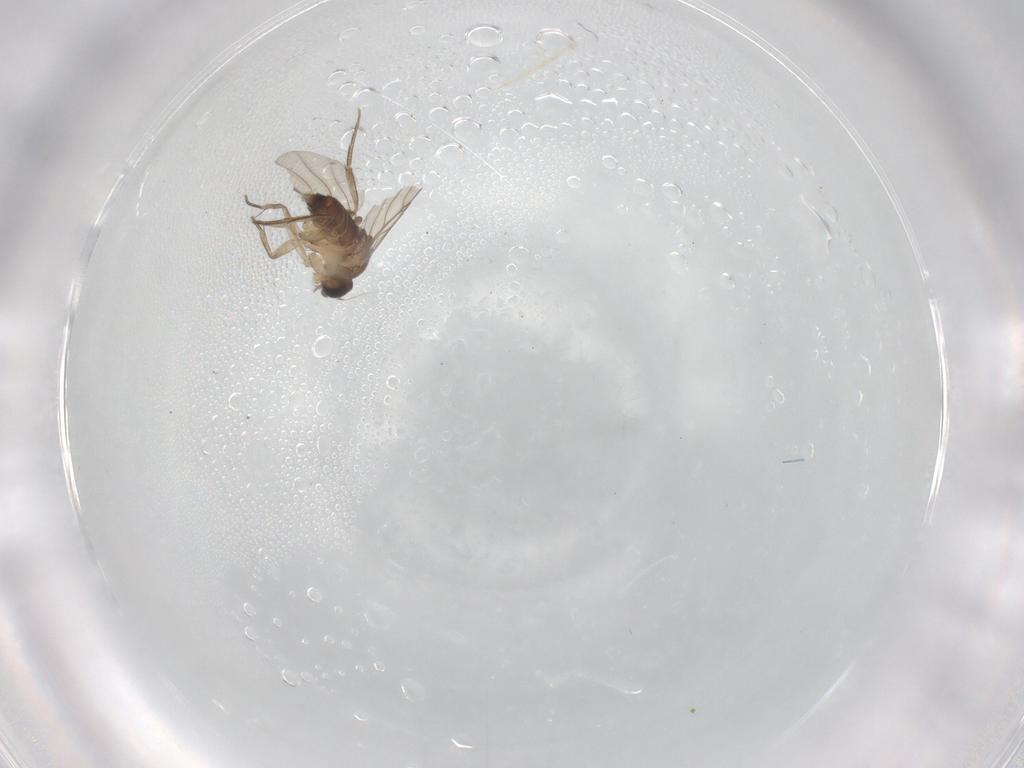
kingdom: Animalia
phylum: Arthropoda
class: Insecta
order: Diptera
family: Phoridae
